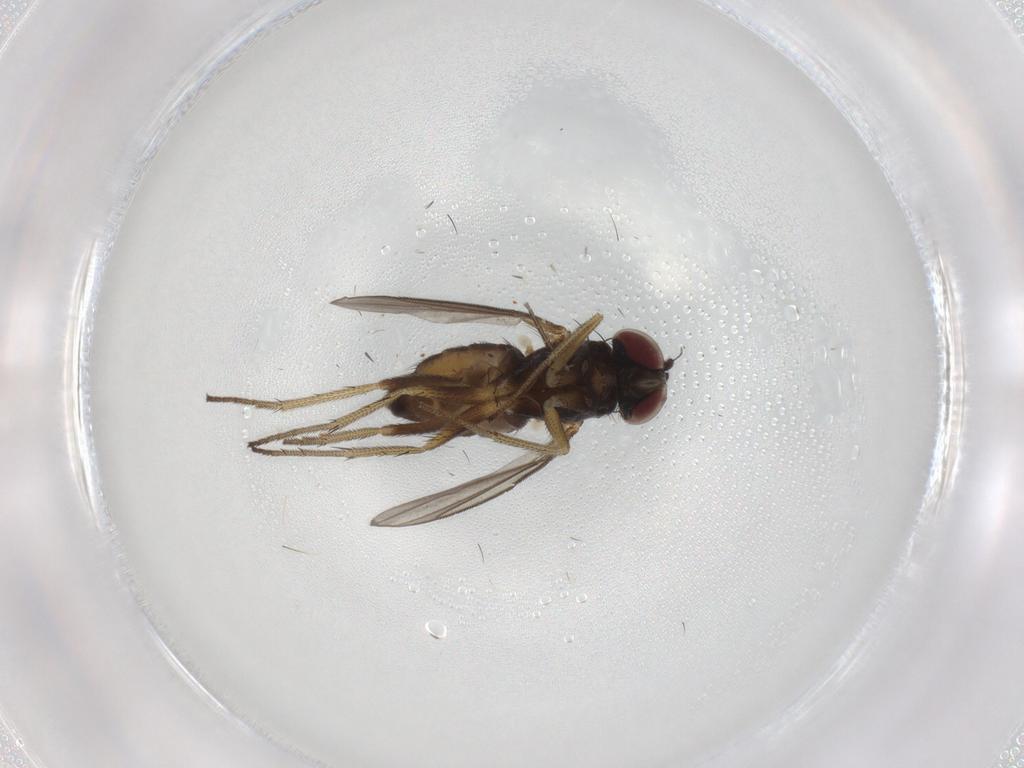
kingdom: Animalia
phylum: Arthropoda
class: Insecta
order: Diptera
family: Dolichopodidae
